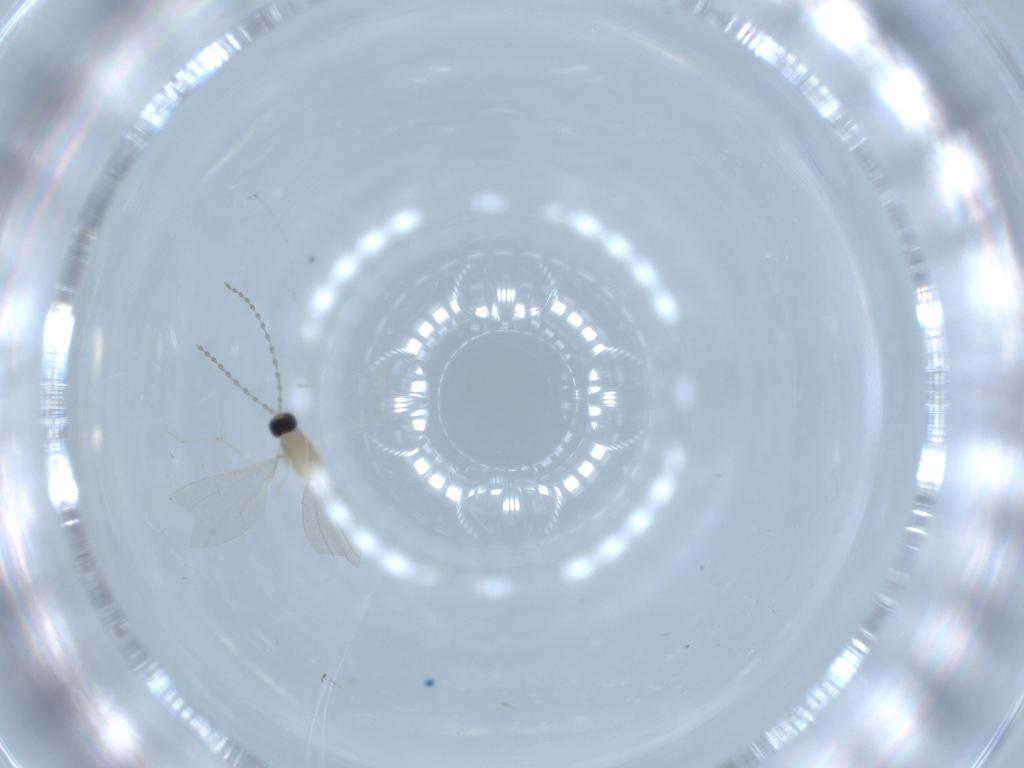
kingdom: Animalia
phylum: Arthropoda
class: Insecta
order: Diptera
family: Cecidomyiidae
